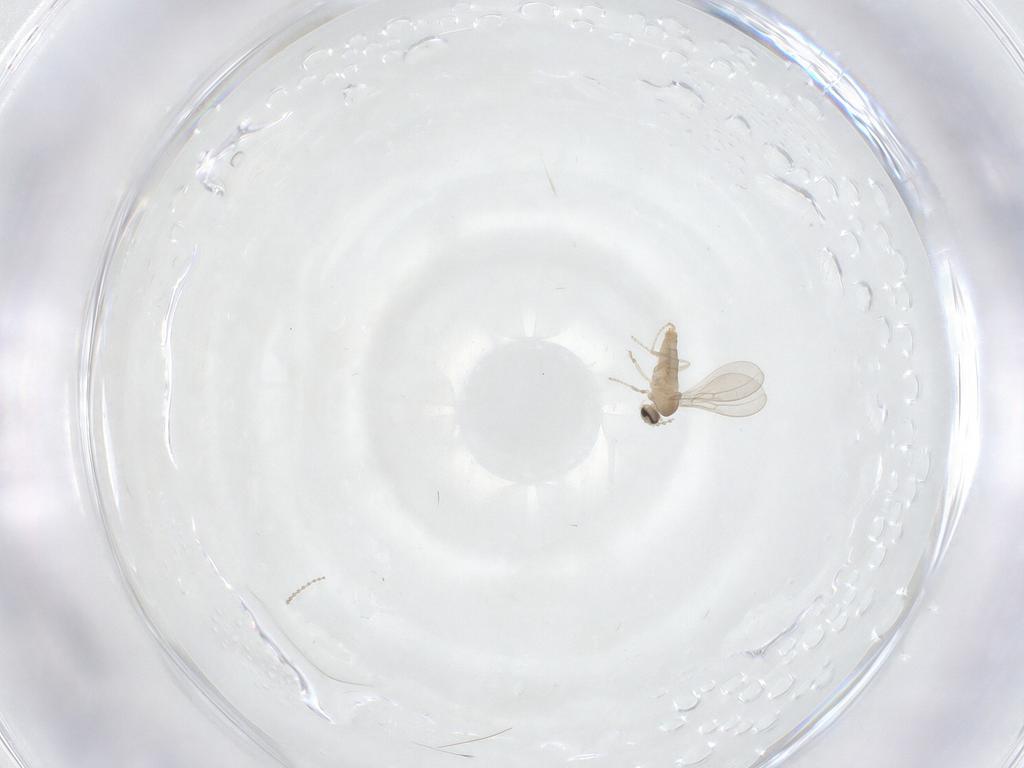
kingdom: Animalia
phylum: Arthropoda
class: Insecta
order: Diptera
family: Cecidomyiidae
